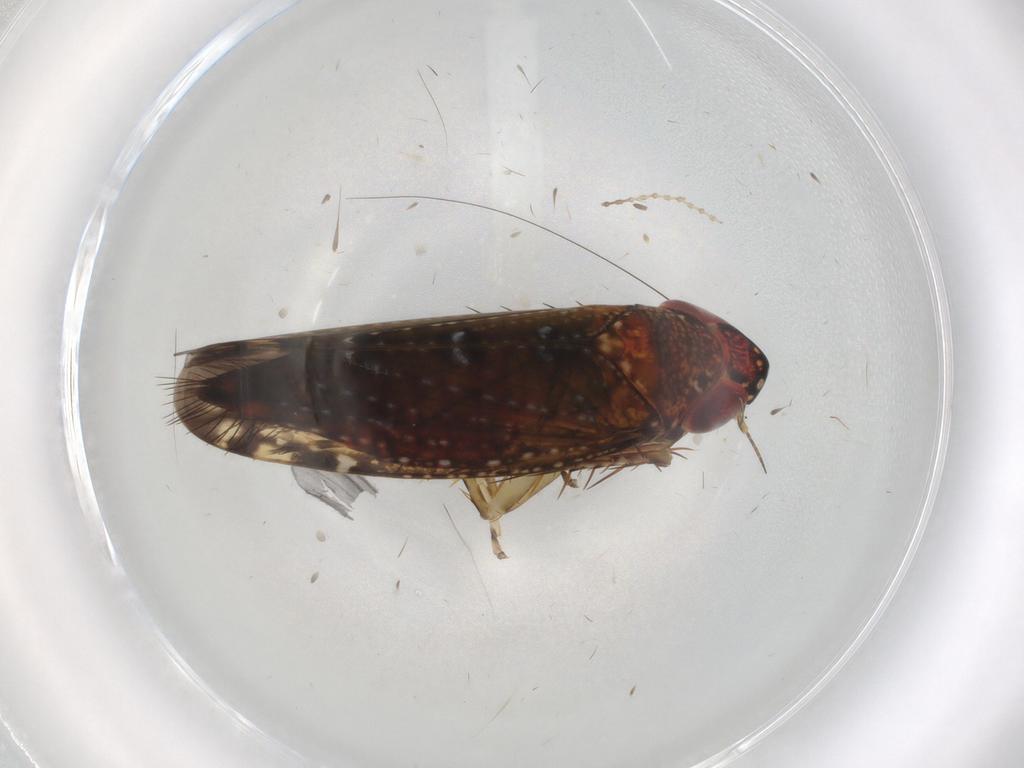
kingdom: Animalia
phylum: Arthropoda
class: Insecta
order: Hemiptera
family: Cicadellidae
